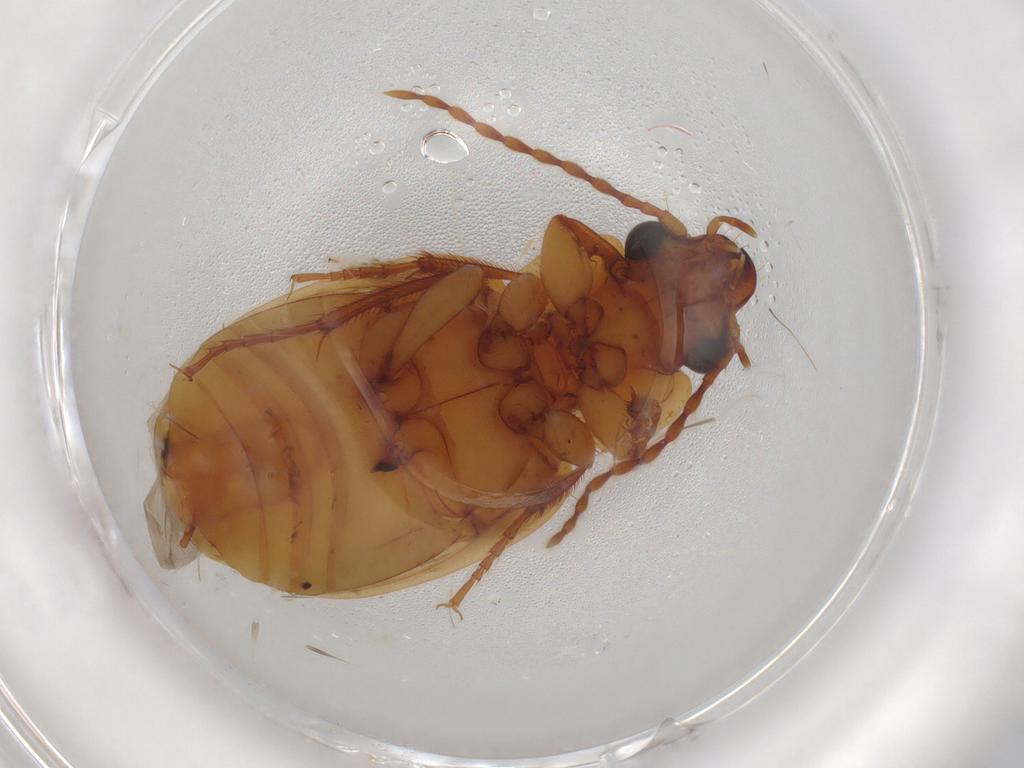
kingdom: Animalia
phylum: Arthropoda
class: Insecta
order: Coleoptera
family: Carabidae
